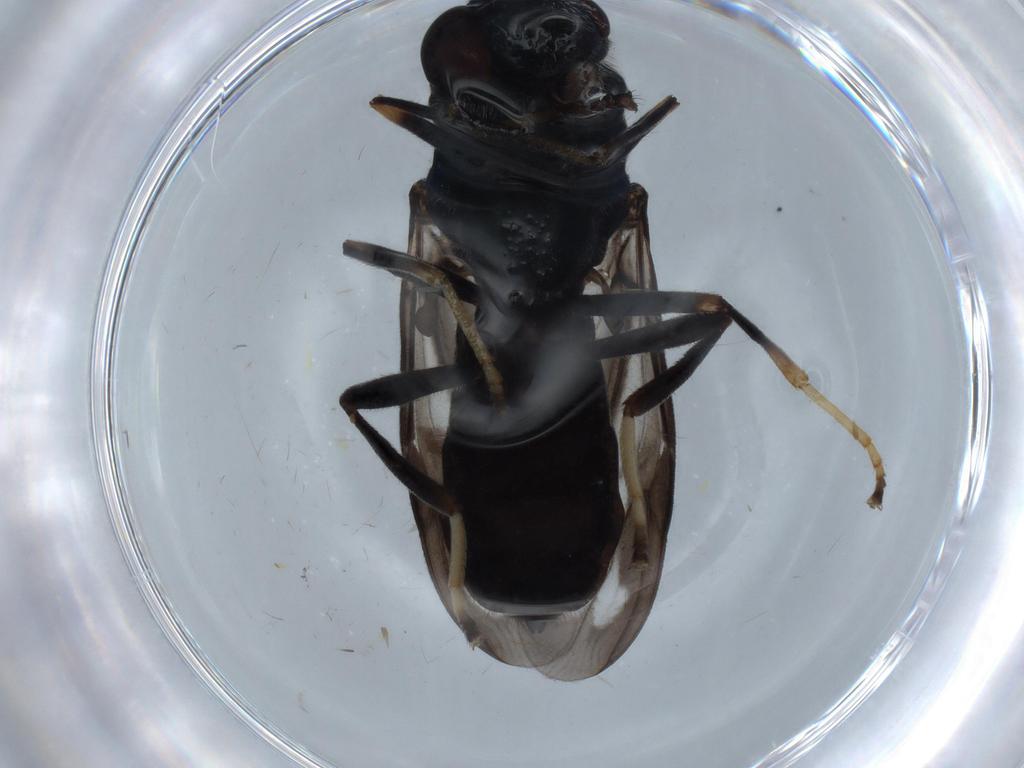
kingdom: Animalia
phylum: Arthropoda
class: Insecta
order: Diptera
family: Stratiomyidae
